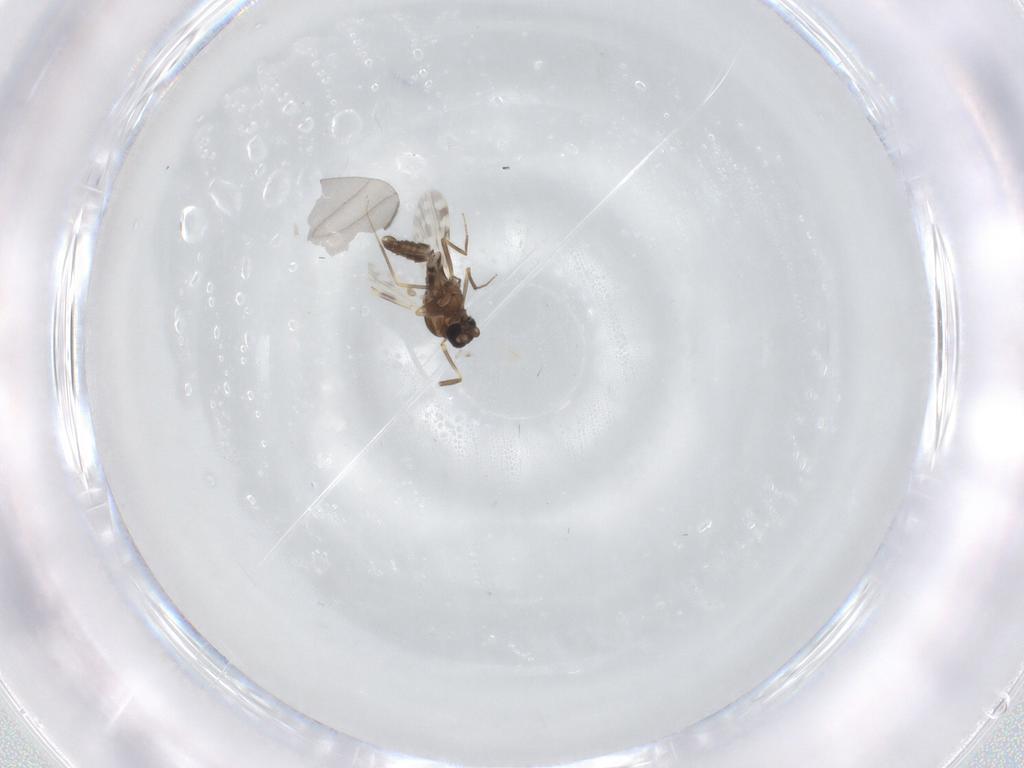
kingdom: Animalia
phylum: Arthropoda
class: Insecta
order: Diptera
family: Ceratopogonidae
